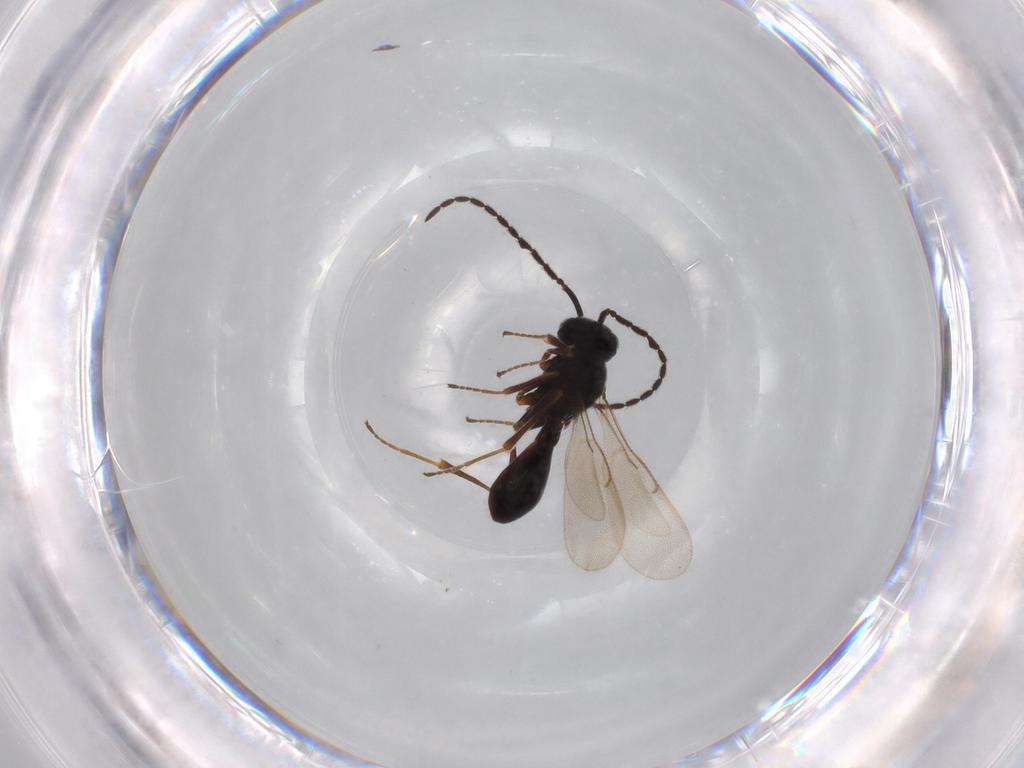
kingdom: Animalia
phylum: Arthropoda
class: Insecta
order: Hymenoptera
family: Scelionidae
